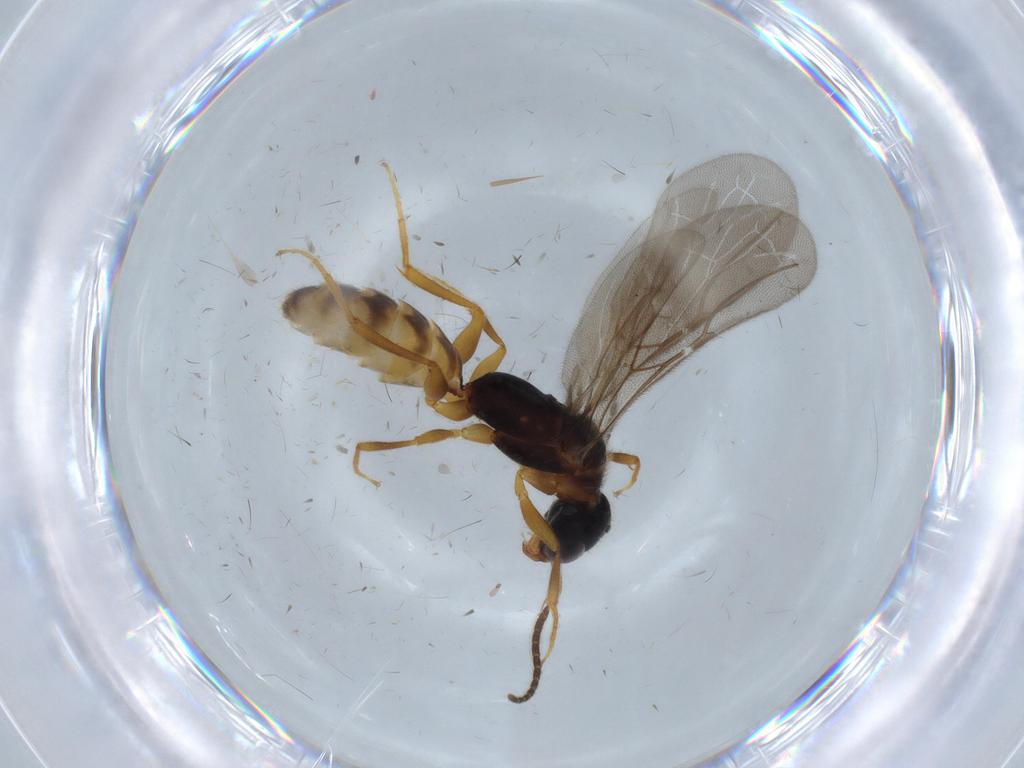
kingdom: Animalia
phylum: Arthropoda
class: Insecta
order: Hymenoptera
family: Bethylidae
